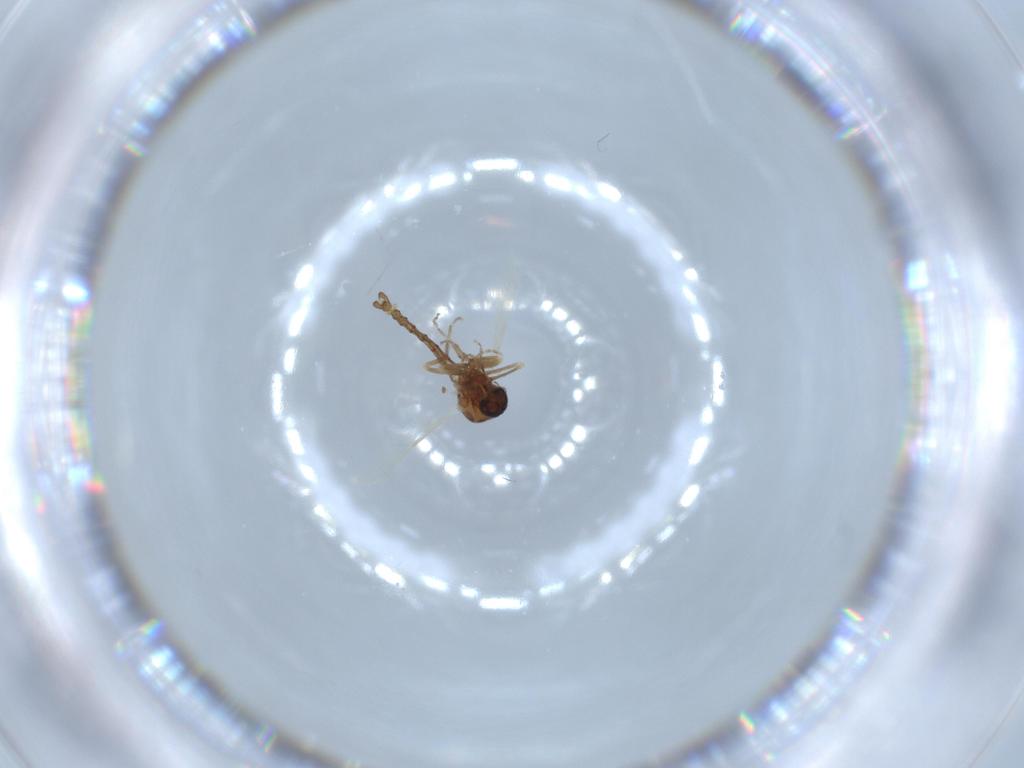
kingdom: Animalia
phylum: Arthropoda
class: Insecta
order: Diptera
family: Ceratopogonidae
